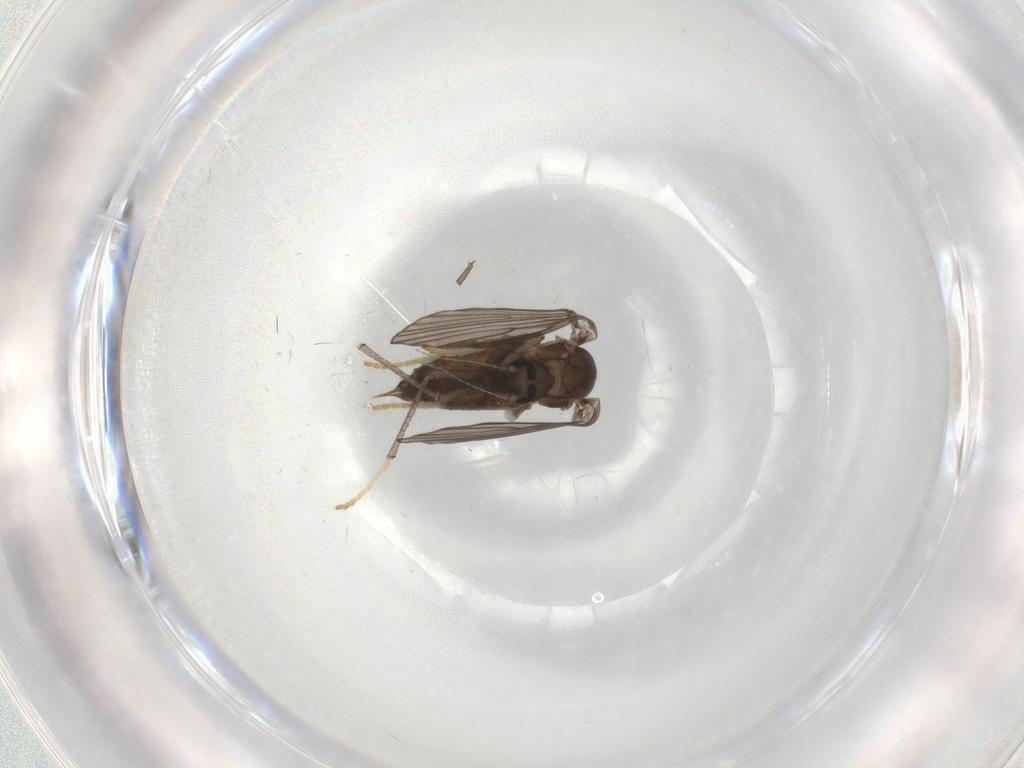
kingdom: Animalia
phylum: Arthropoda
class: Insecta
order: Diptera
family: Psychodidae
